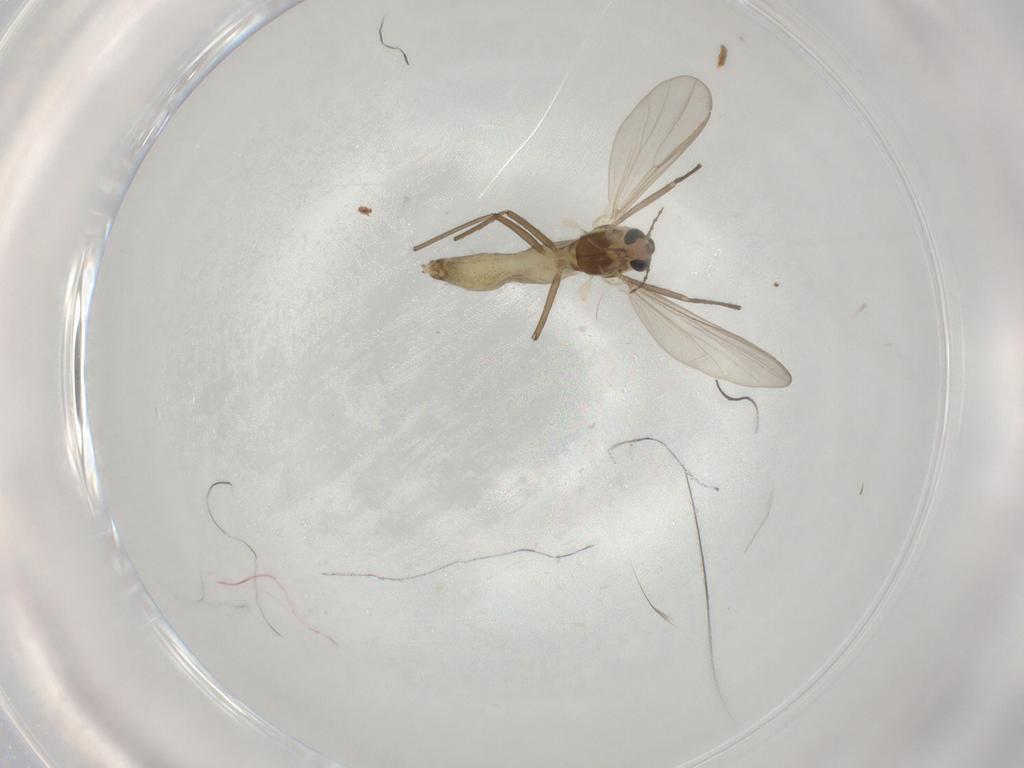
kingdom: Animalia
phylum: Arthropoda
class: Insecta
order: Diptera
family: Chironomidae
